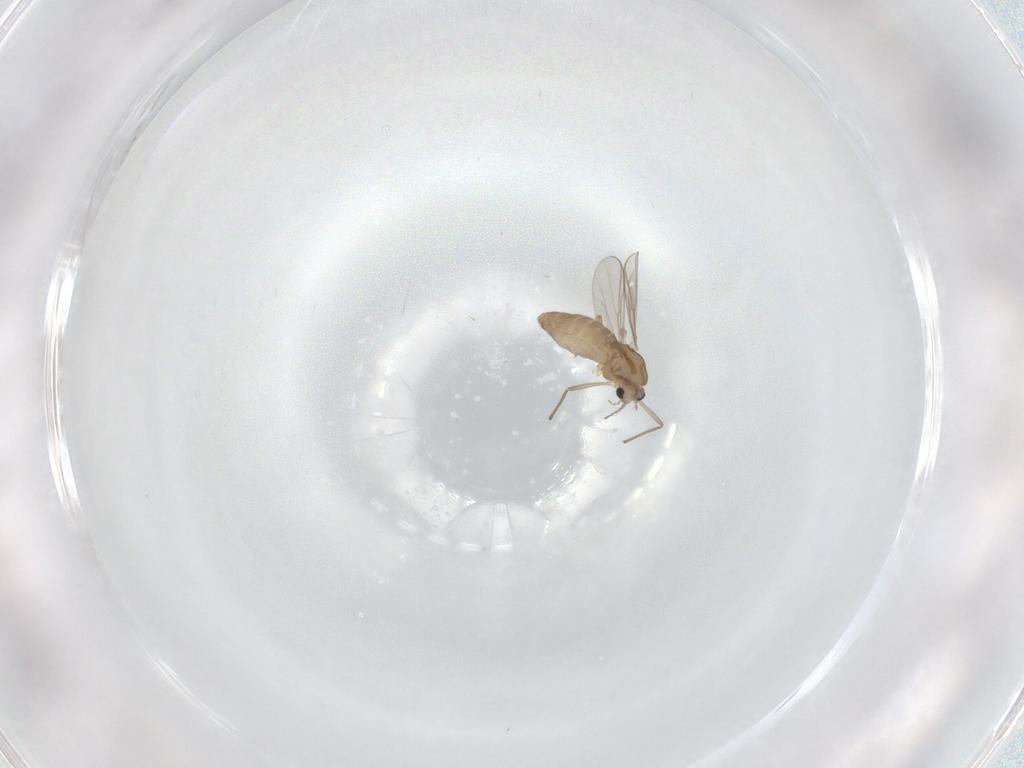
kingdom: Animalia
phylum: Arthropoda
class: Insecta
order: Diptera
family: Chironomidae
